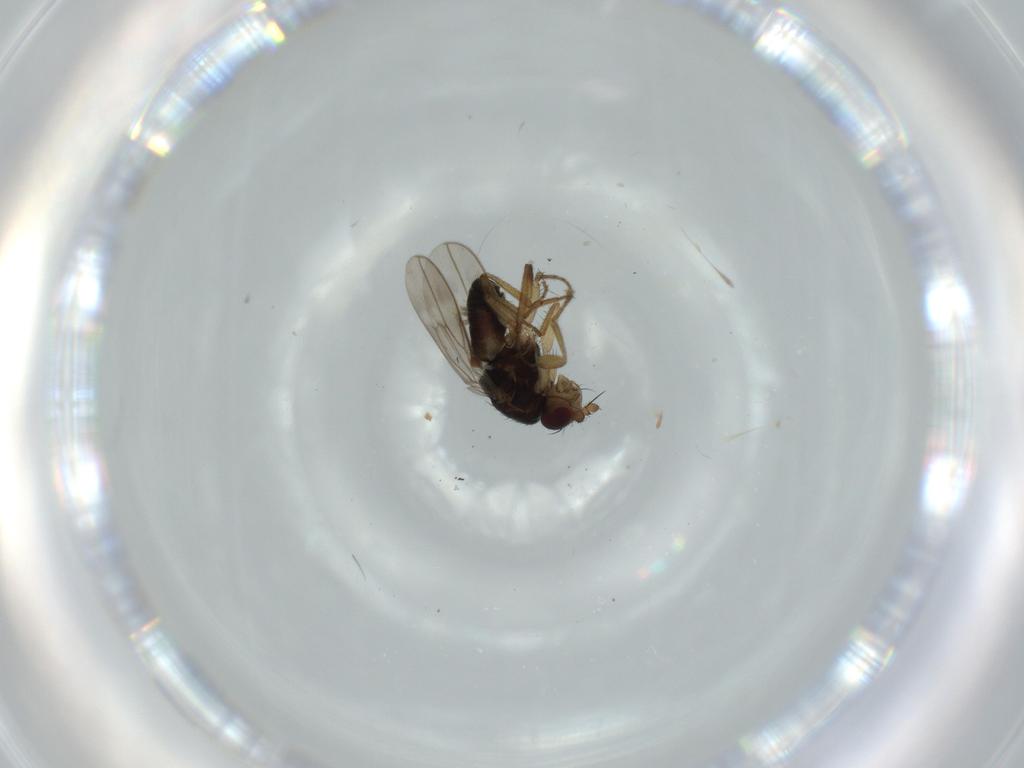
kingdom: Animalia
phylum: Arthropoda
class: Insecta
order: Diptera
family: Sphaeroceridae
